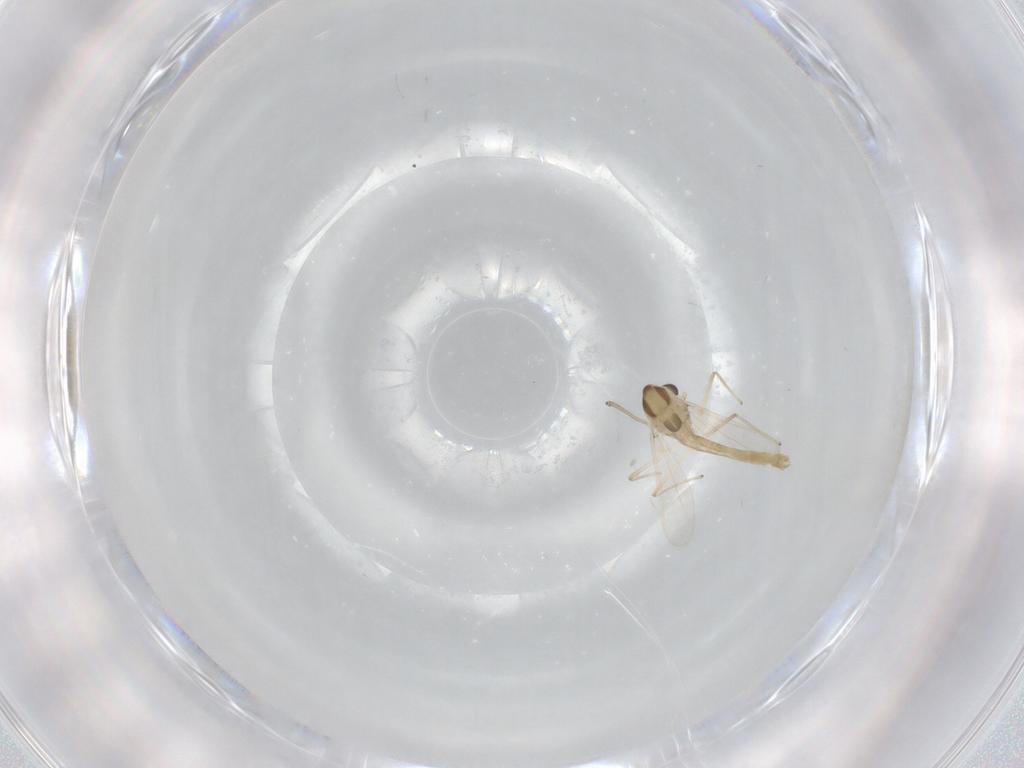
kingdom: Animalia
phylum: Arthropoda
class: Insecta
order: Diptera
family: Chironomidae
